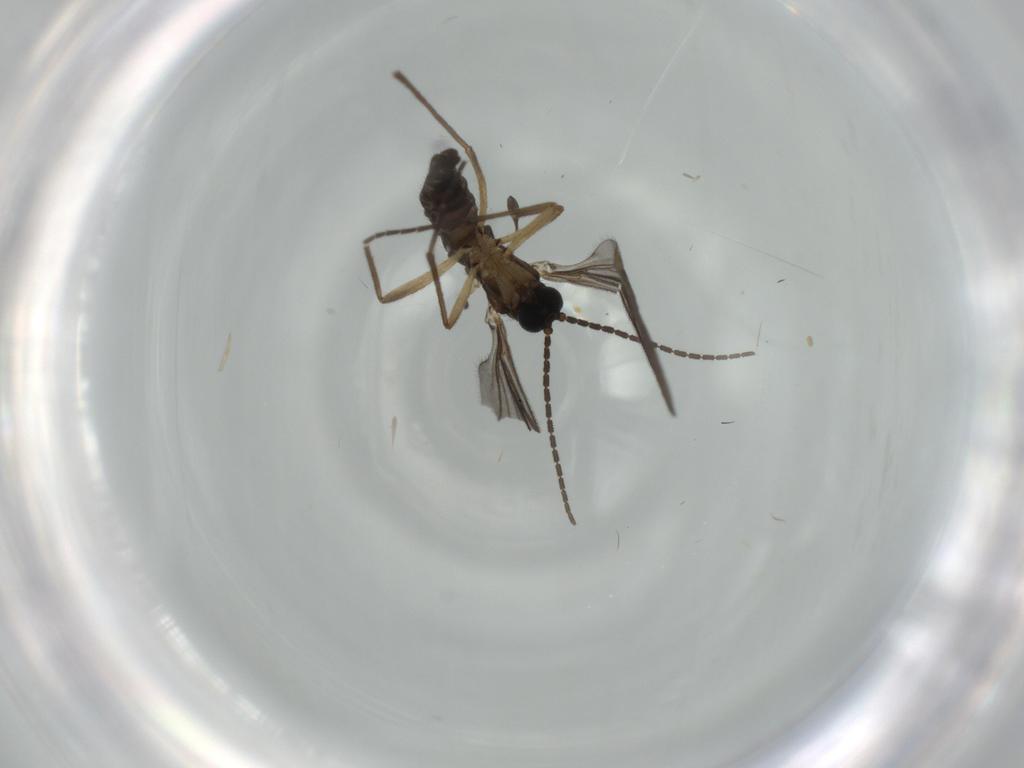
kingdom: Animalia
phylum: Arthropoda
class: Insecta
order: Diptera
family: Sciaridae
